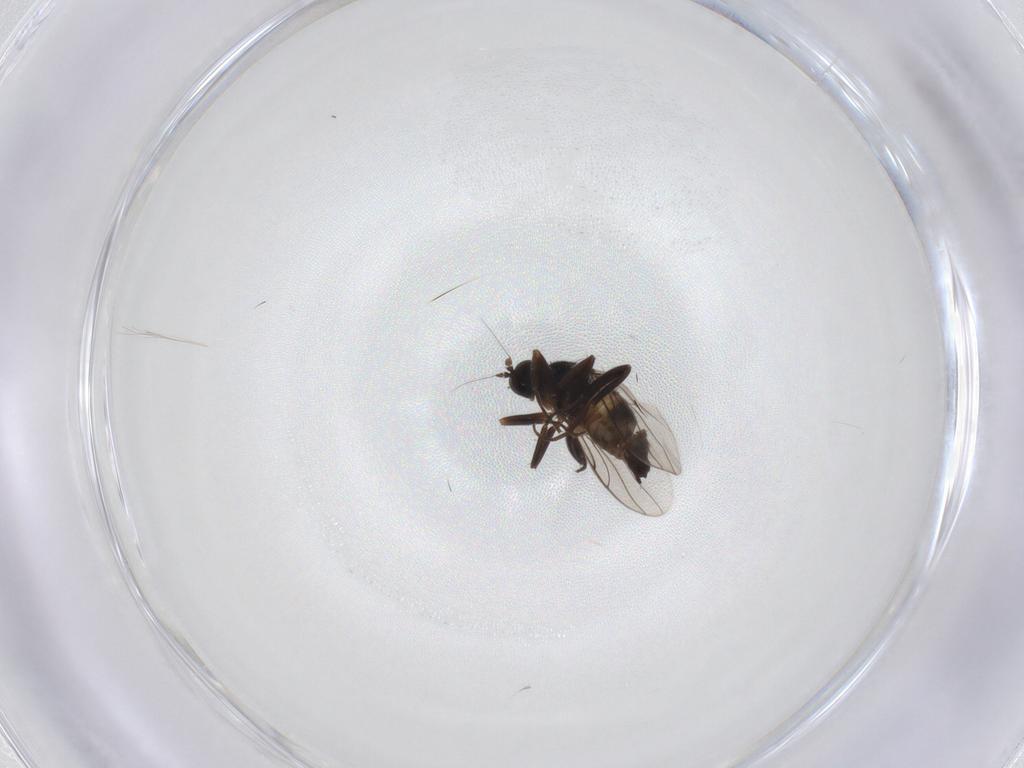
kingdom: Animalia
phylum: Arthropoda
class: Insecta
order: Diptera
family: Hybotidae
